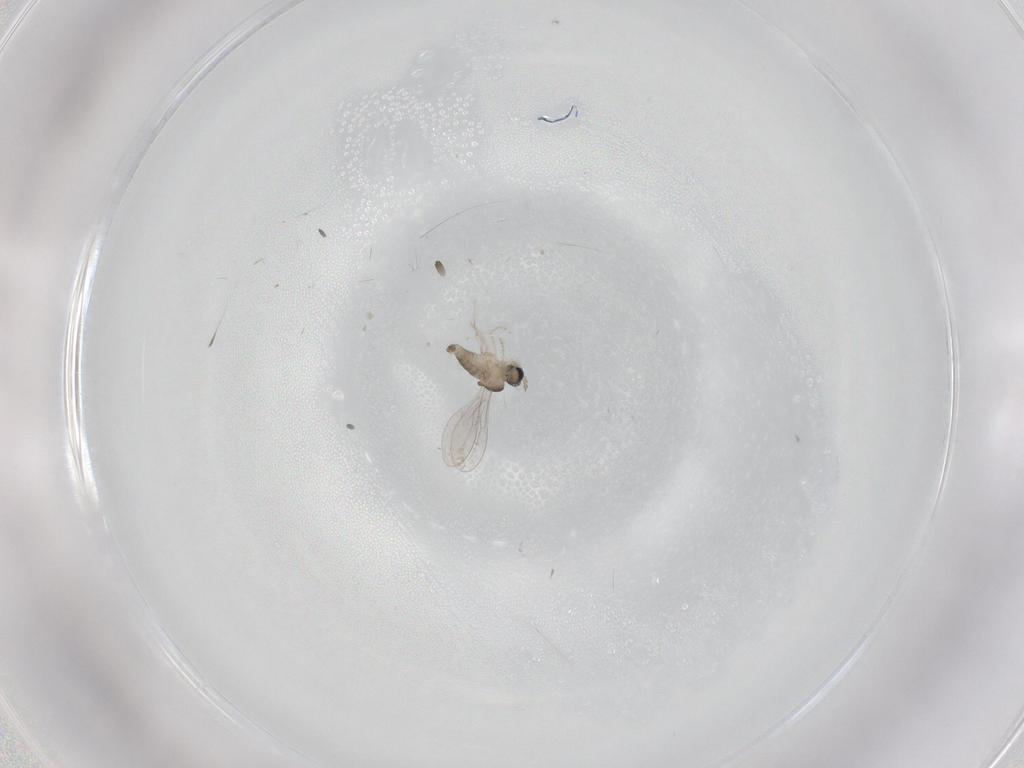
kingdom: Animalia
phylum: Arthropoda
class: Insecta
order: Diptera
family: Cecidomyiidae
